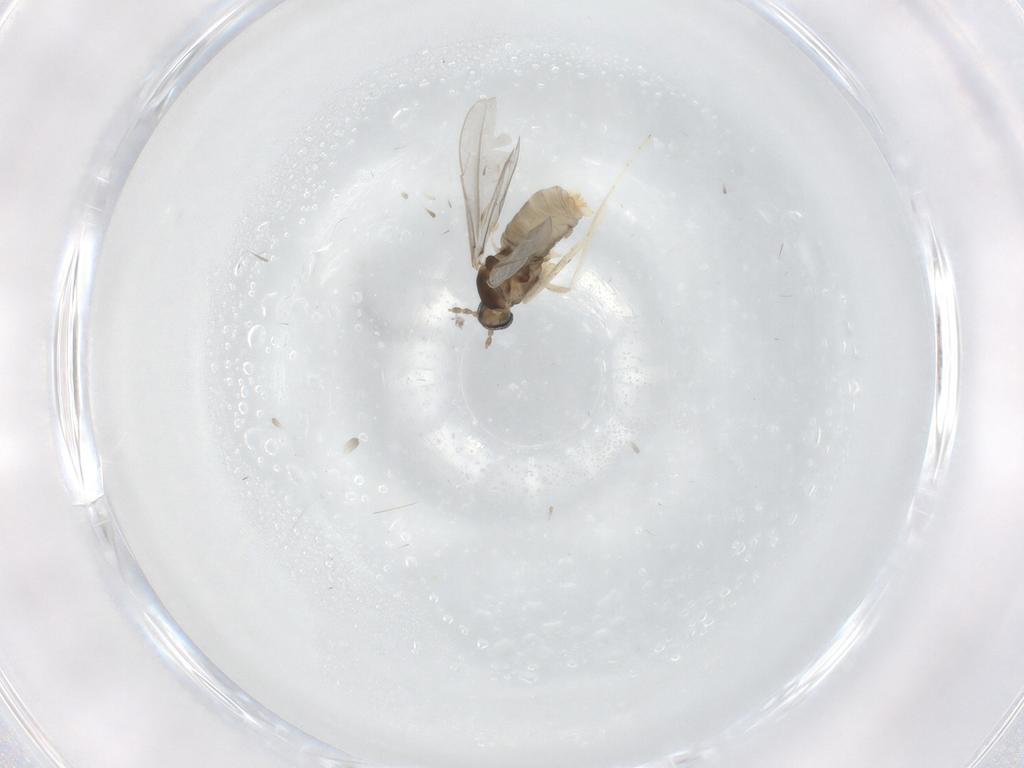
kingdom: Animalia
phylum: Arthropoda
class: Insecta
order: Diptera
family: Cecidomyiidae
